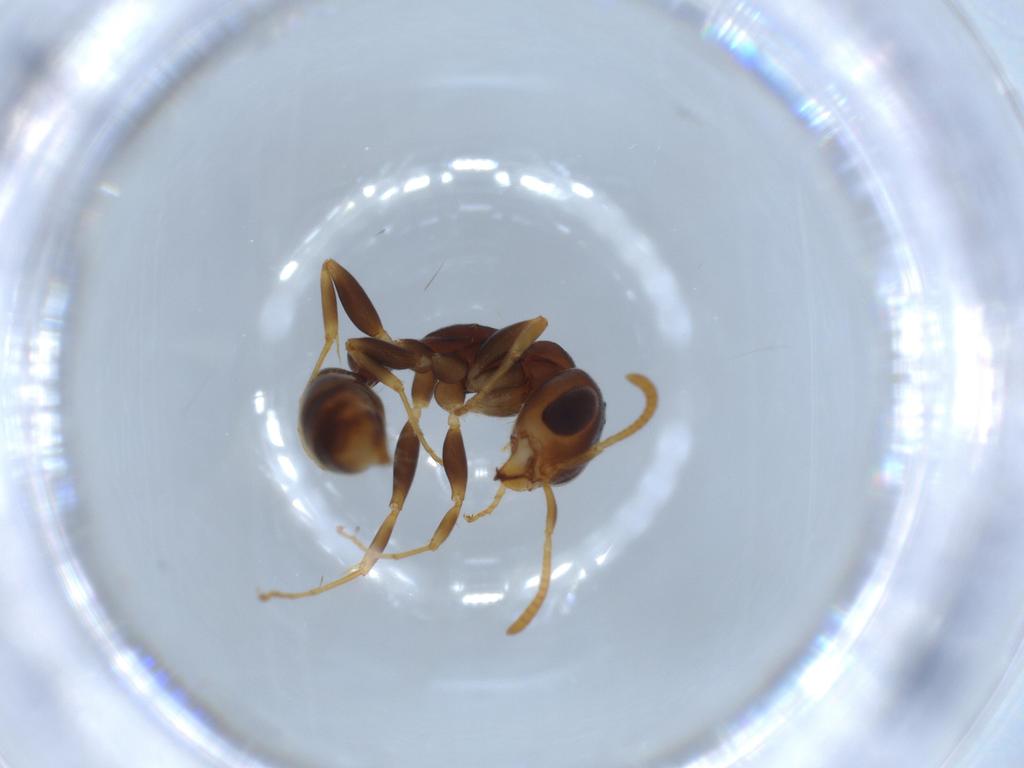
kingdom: Animalia
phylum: Arthropoda
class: Insecta
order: Hymenoptera
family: Formicidae
